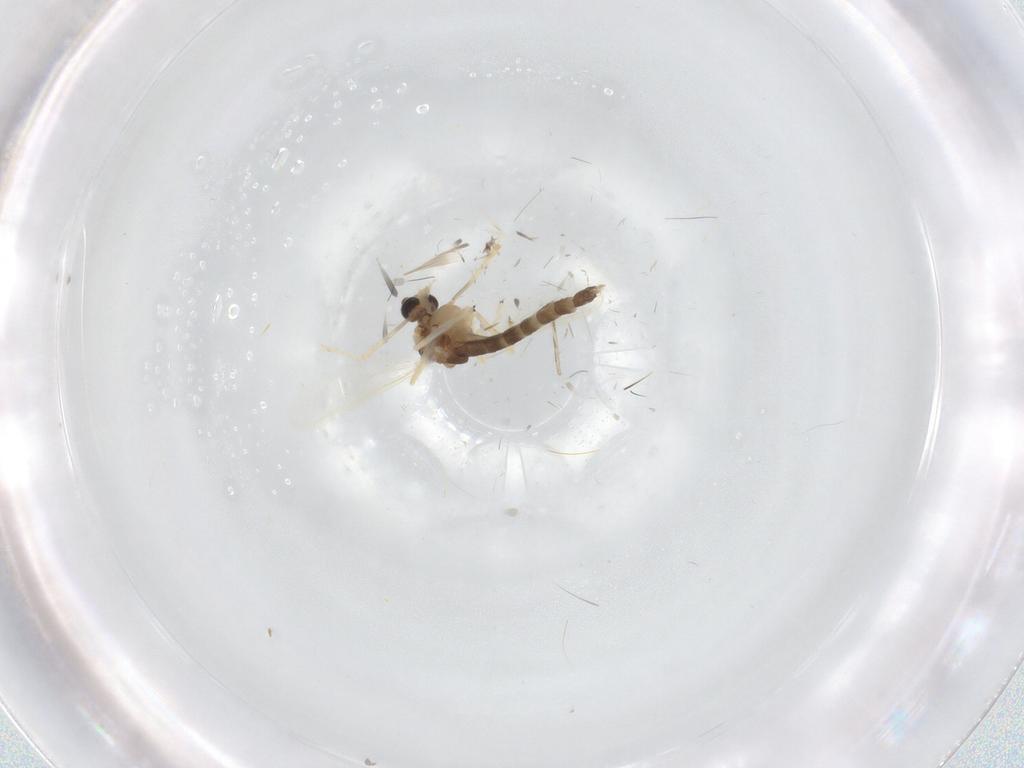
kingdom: Animalia
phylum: Arthropoda
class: Insecta
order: Diptera
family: Chironomidae
